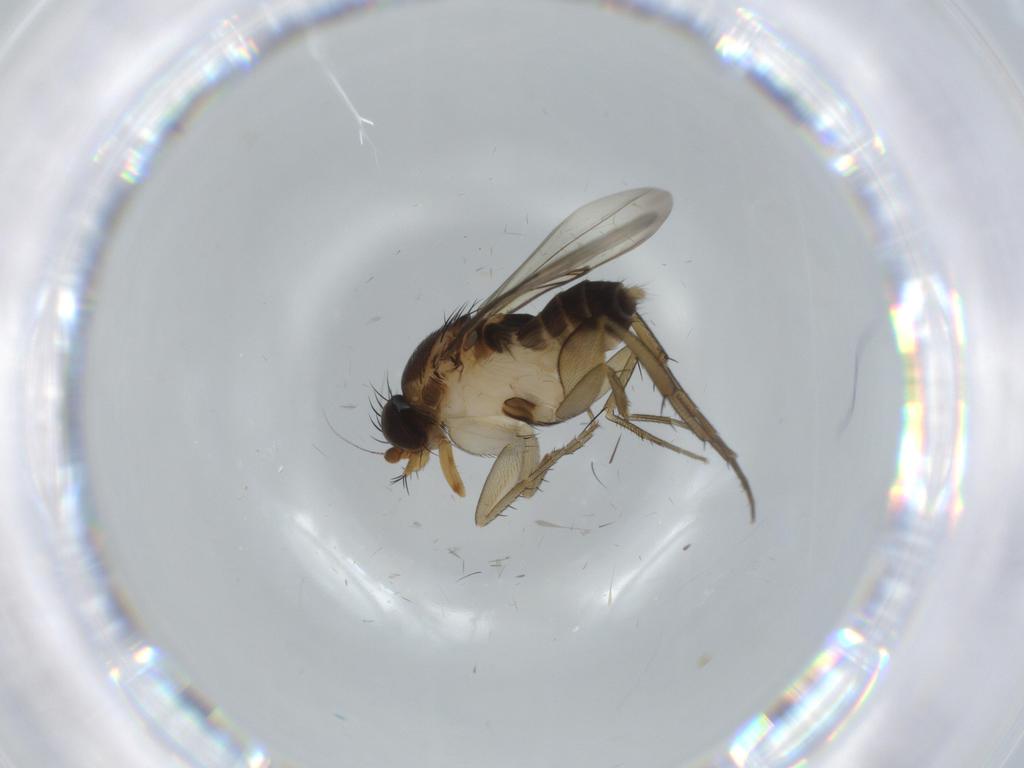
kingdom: Animalia
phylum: Arthropoda
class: Insecta
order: Diptera
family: Phoridae
